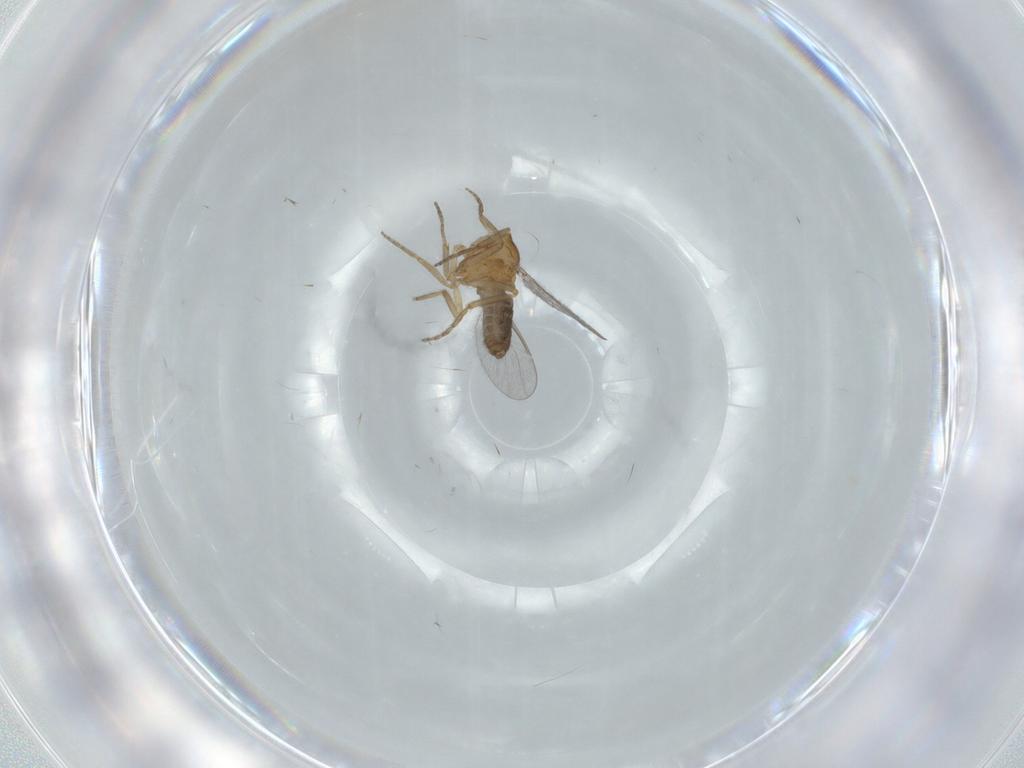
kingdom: Animalia
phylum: Arthropoda
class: Insecta
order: Diptera
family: Ceratopogonidae
